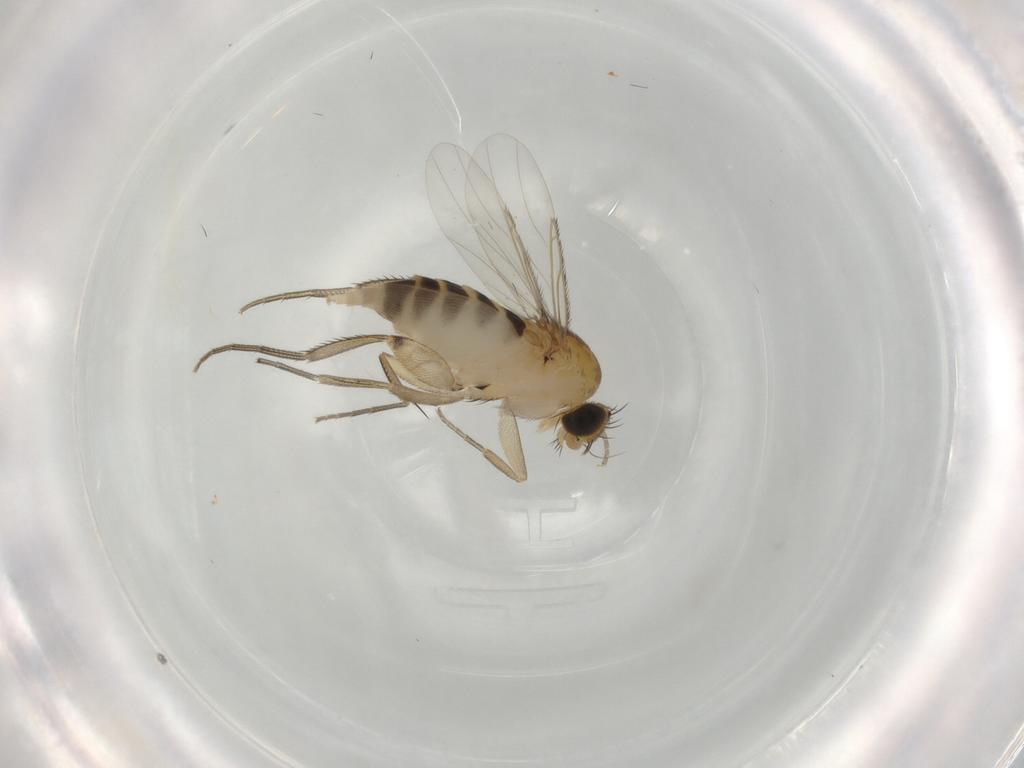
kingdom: Animalia
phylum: Arthropoda
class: Insecta
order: Diptera
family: Phoridae
